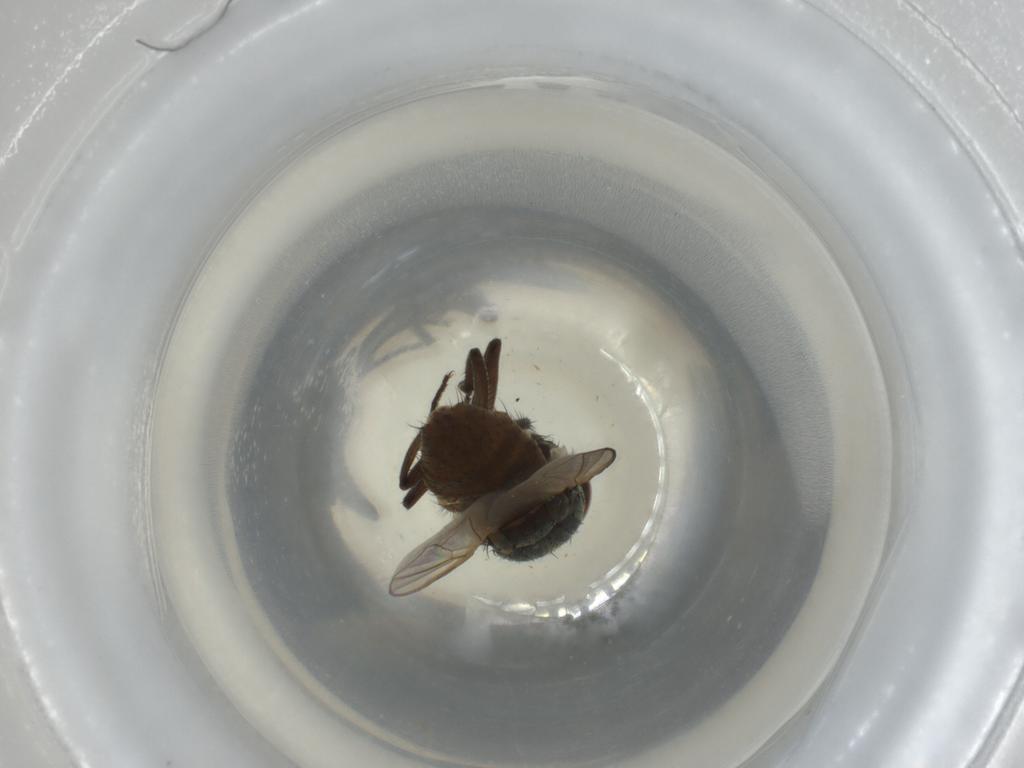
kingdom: Animalia
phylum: Arthropoda
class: Insecta
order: Diptera
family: Muscidae
